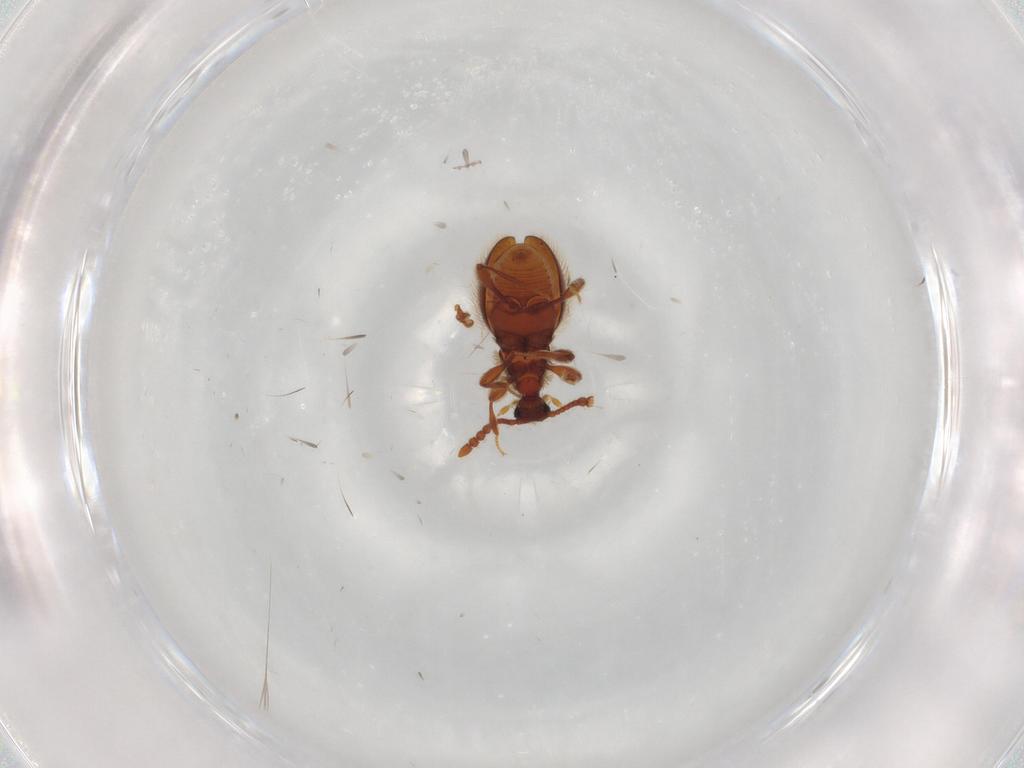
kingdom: Animalia
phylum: Arthropoda
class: Insecta
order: Coleoptera
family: Staphylinidae
